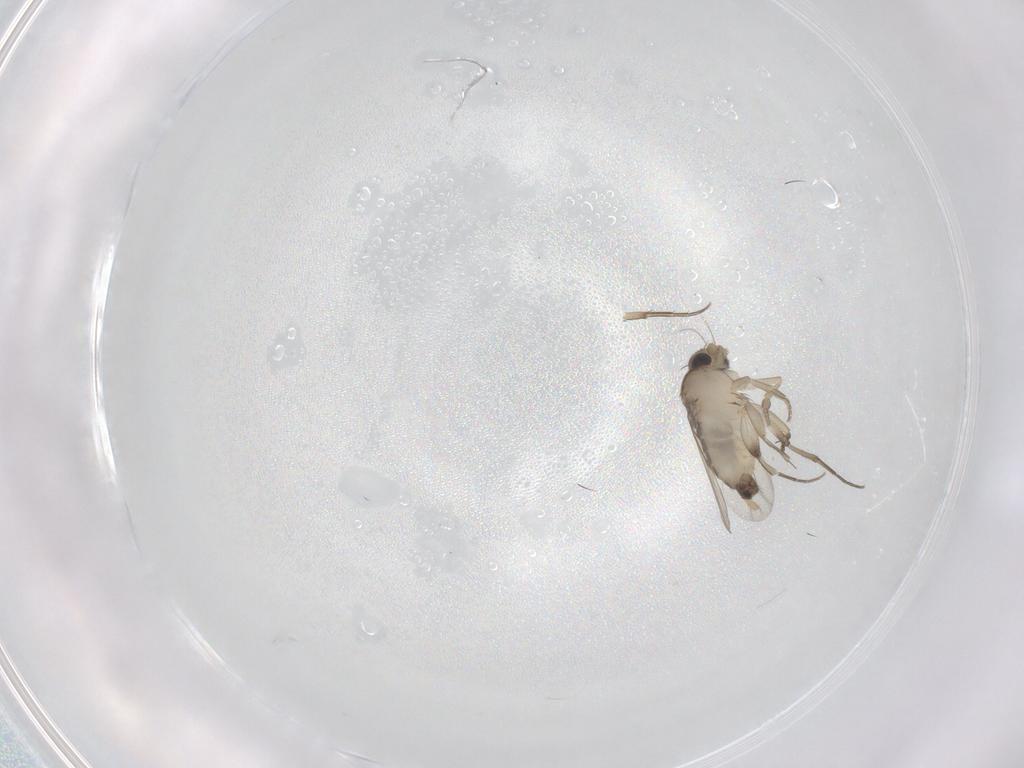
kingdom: Animalia
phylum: Arthropoda
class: Insecta
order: Diptera
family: Phoridae
